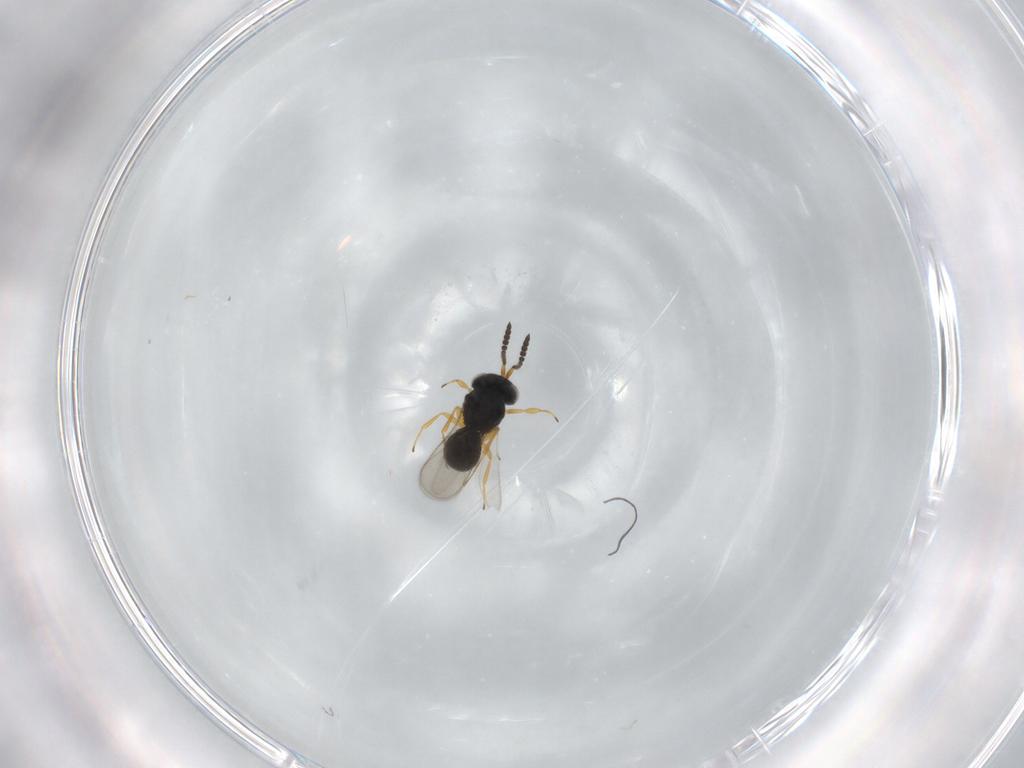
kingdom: Animalia
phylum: Arthropoda
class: Insecta
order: Hymenoptera
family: Scelionidae
